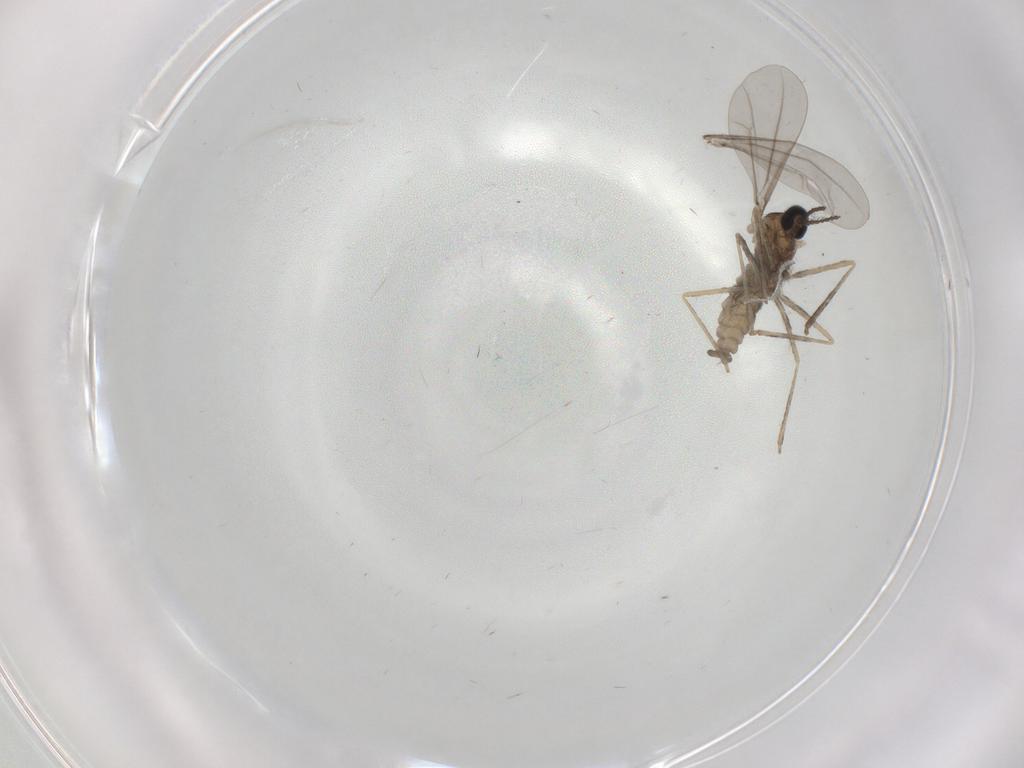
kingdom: Animalia
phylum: Arthropoda
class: Insecta
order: Diptera
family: Cecidomyiidae
